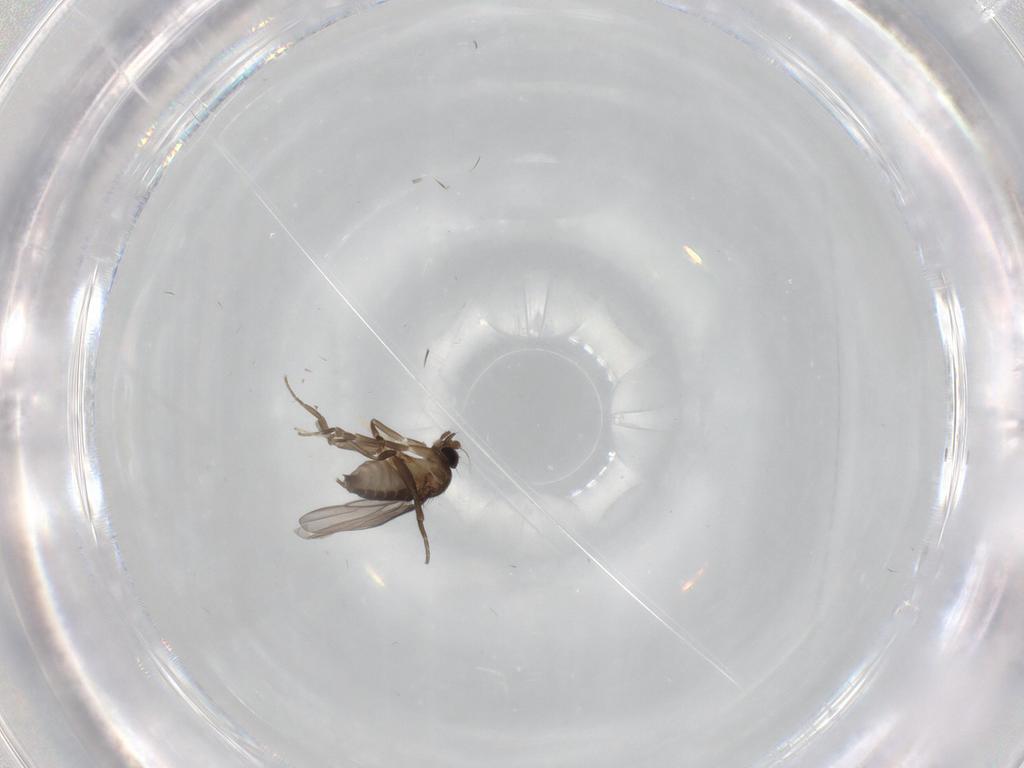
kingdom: Animalia
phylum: Arthropoda
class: Insecta
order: Diptera
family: Phoridae
